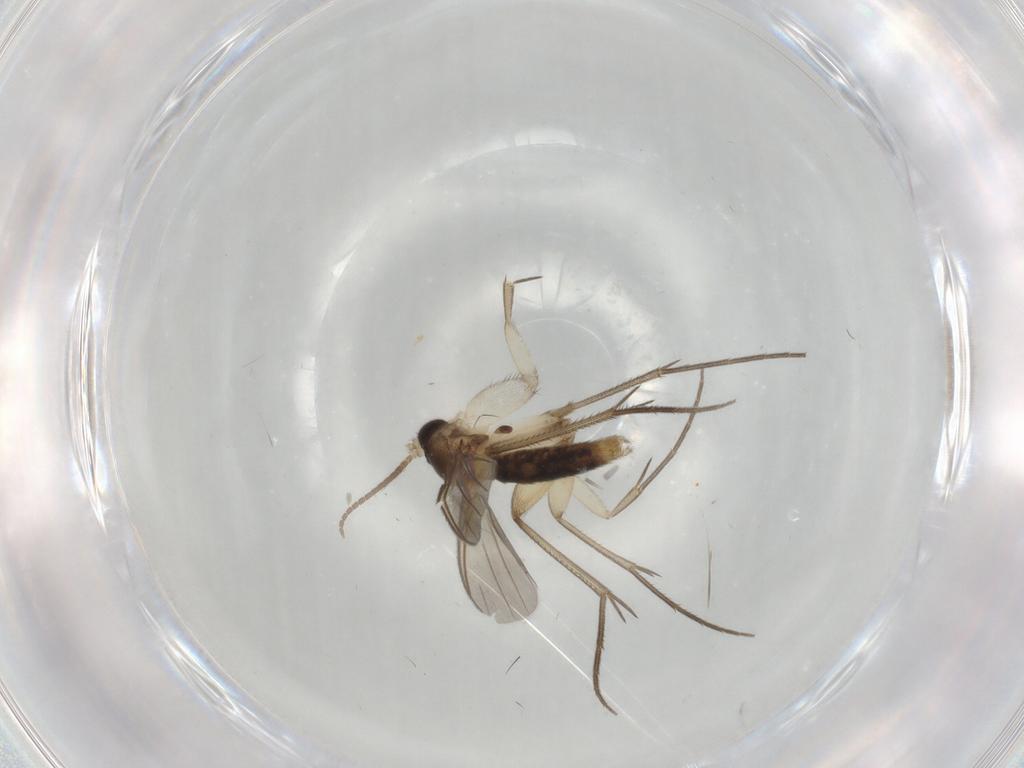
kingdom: Animalia
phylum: Arthropoda
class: Insecta
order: Diptera
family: Mycetophilidae
